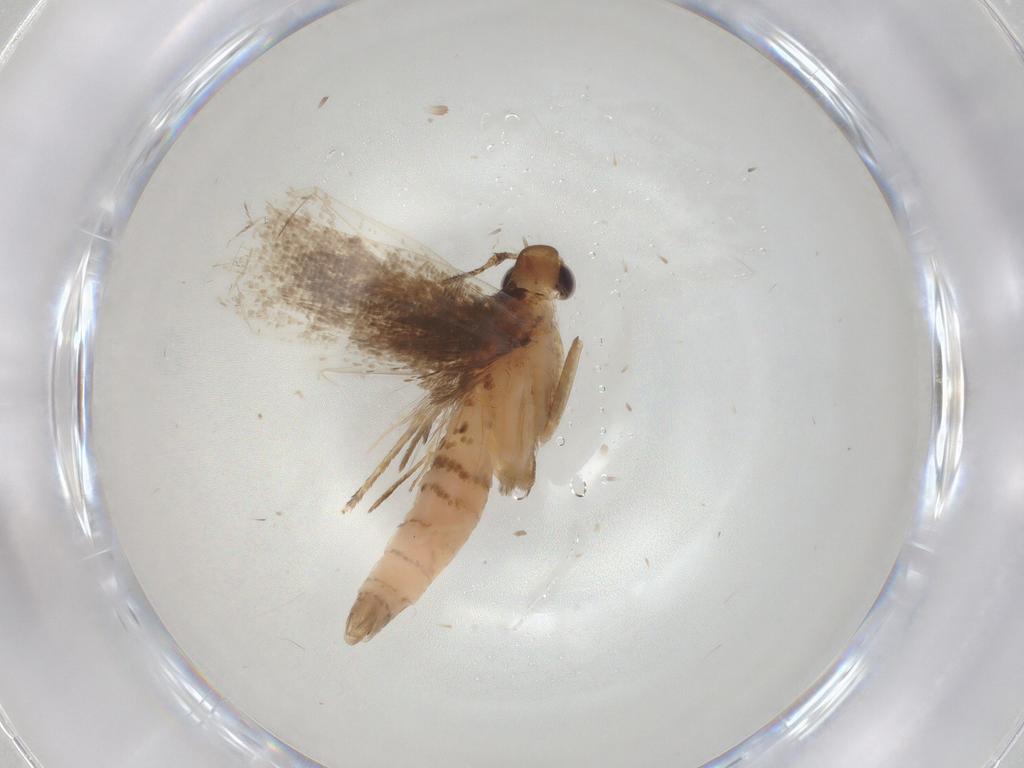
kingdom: Animalia
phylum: Arthropoda
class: Insecta
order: Lepidoptera
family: Gelechiidae
